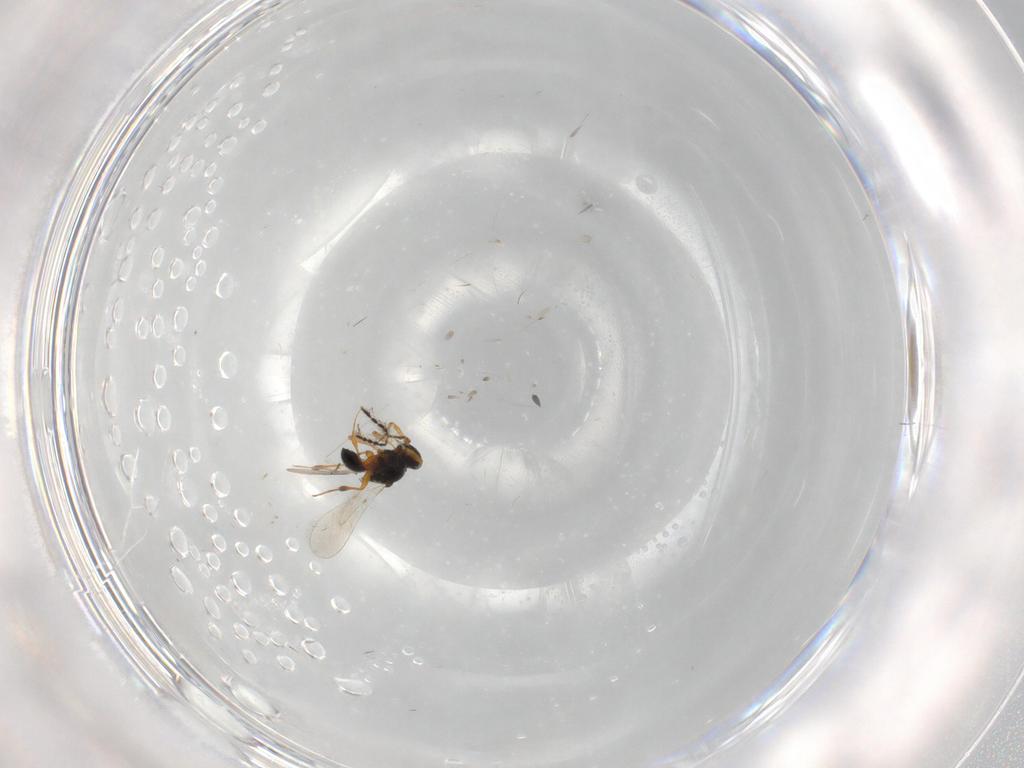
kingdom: Animalia
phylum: Arthropoda
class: Insecta
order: Hymenoptera
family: Platygastridae
